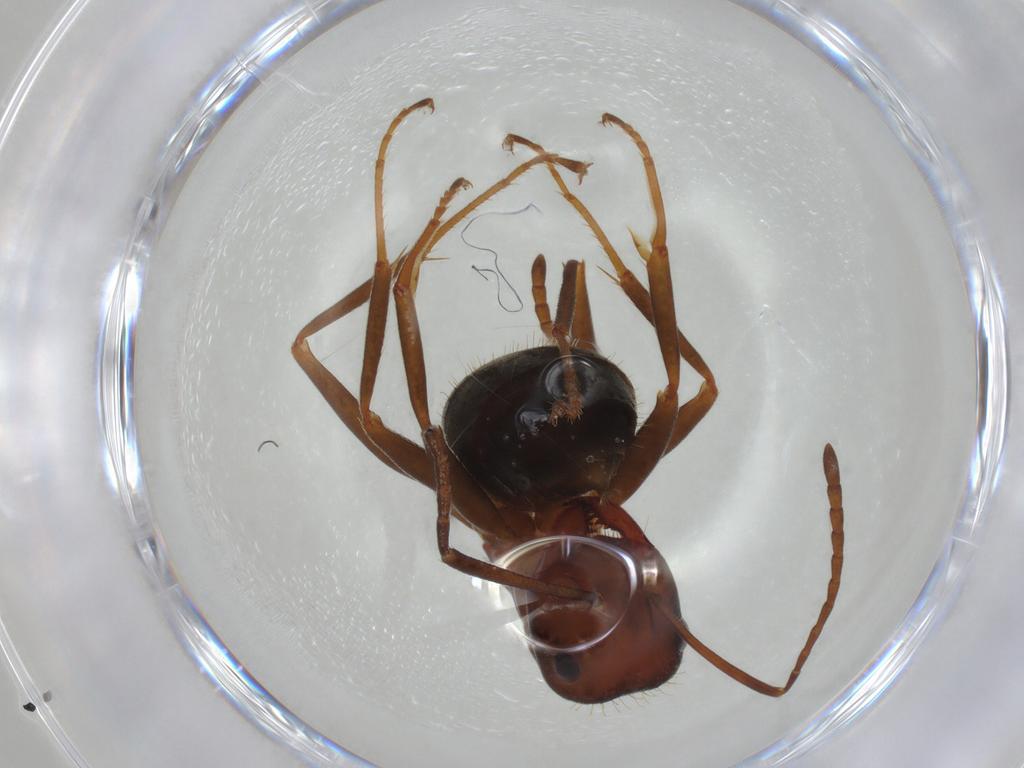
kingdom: Animalia
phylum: Arthropoda
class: Insecta
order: Hymenoptera
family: Formicidae
